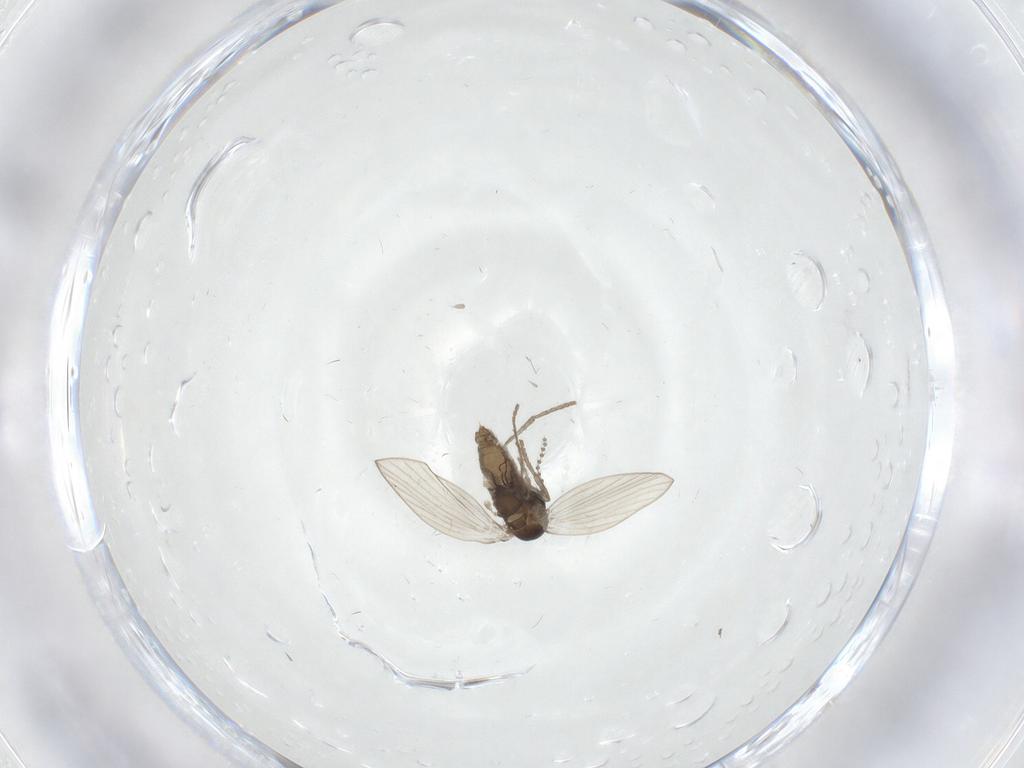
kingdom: Animalia
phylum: Arthropoda
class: Insecta
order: Diptera
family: Psychodidae
